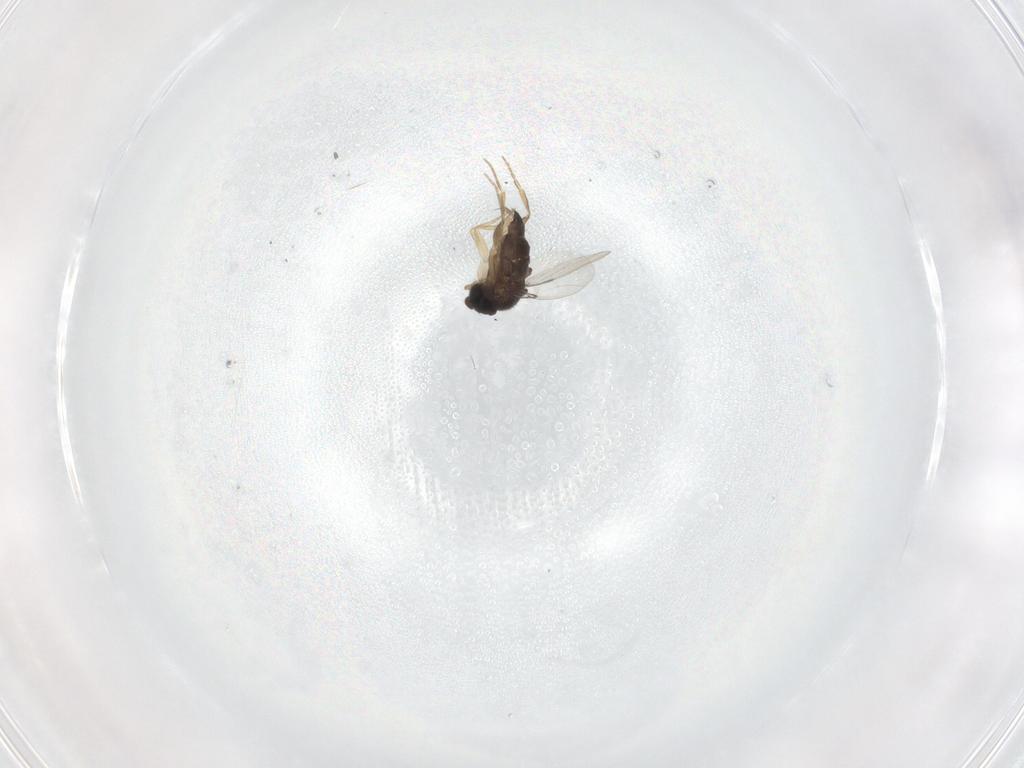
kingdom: Animalia
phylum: Arthropoda
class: Insecta
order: Diptera
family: Phoridae
